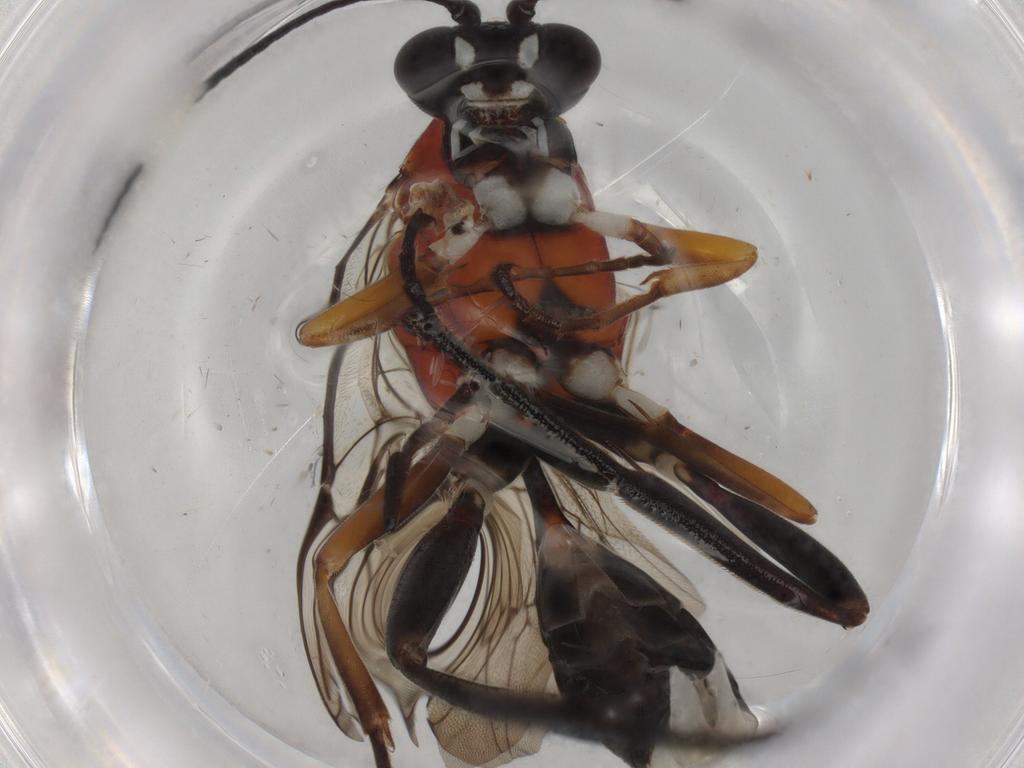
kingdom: Animalia
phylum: Arthropoda
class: Insecta
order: Hymenoptera
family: Ichneumonidae
